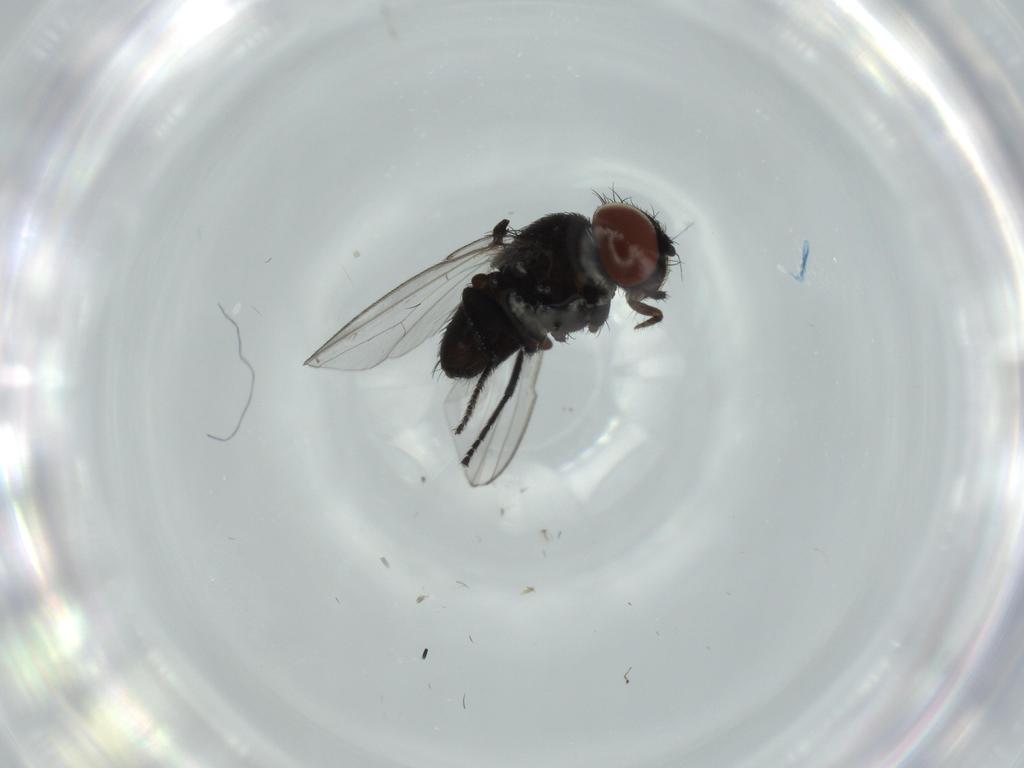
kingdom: Animalia
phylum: Arthropoda
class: Insecta
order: Diptera
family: Milichiidae
